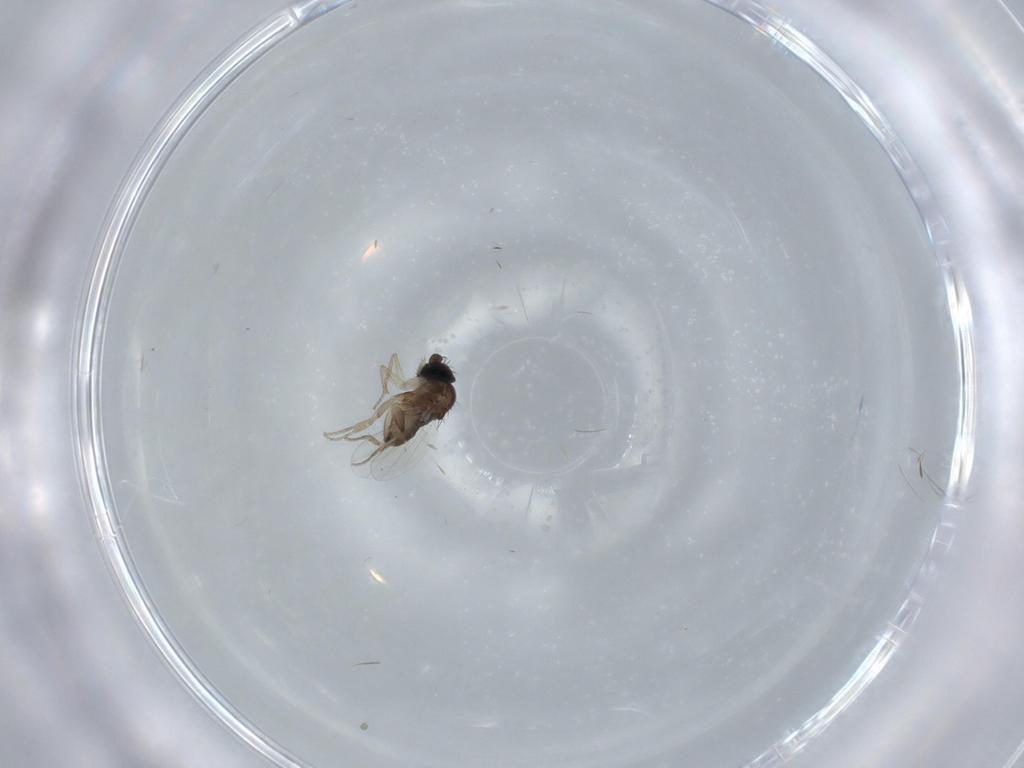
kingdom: Animalia
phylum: Arthropoda
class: Insecta
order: Diptera
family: Phoridae
